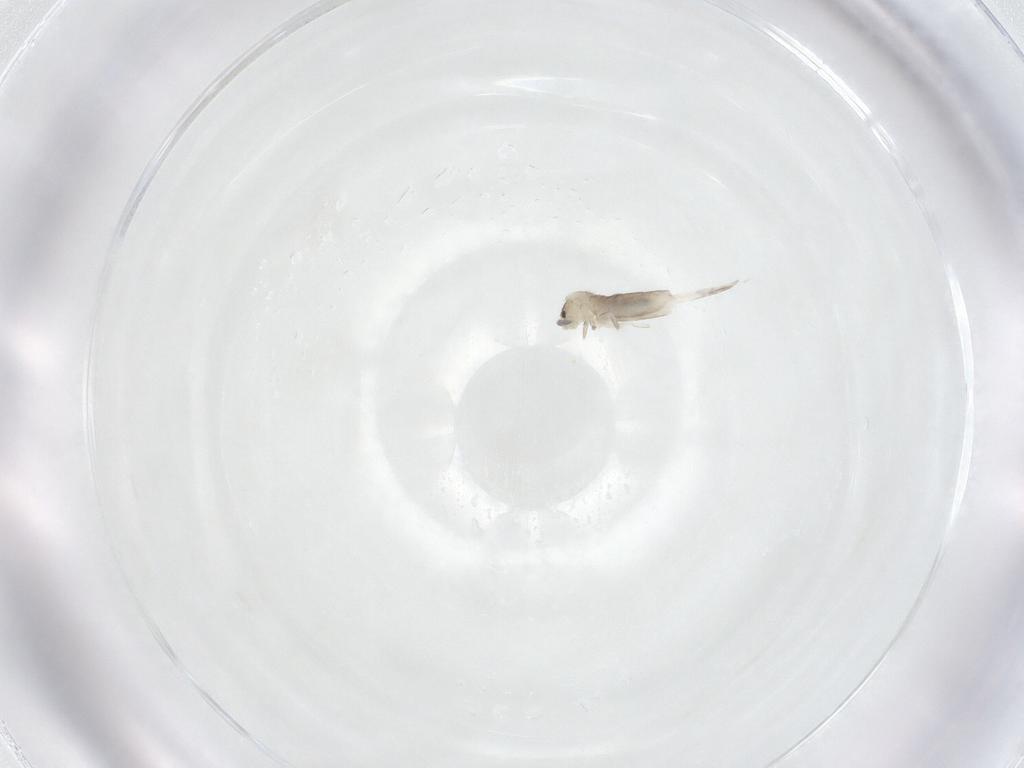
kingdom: Animalia
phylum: Arthropoda
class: Collembola
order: Entomobryomorpha
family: Entomobryidae
